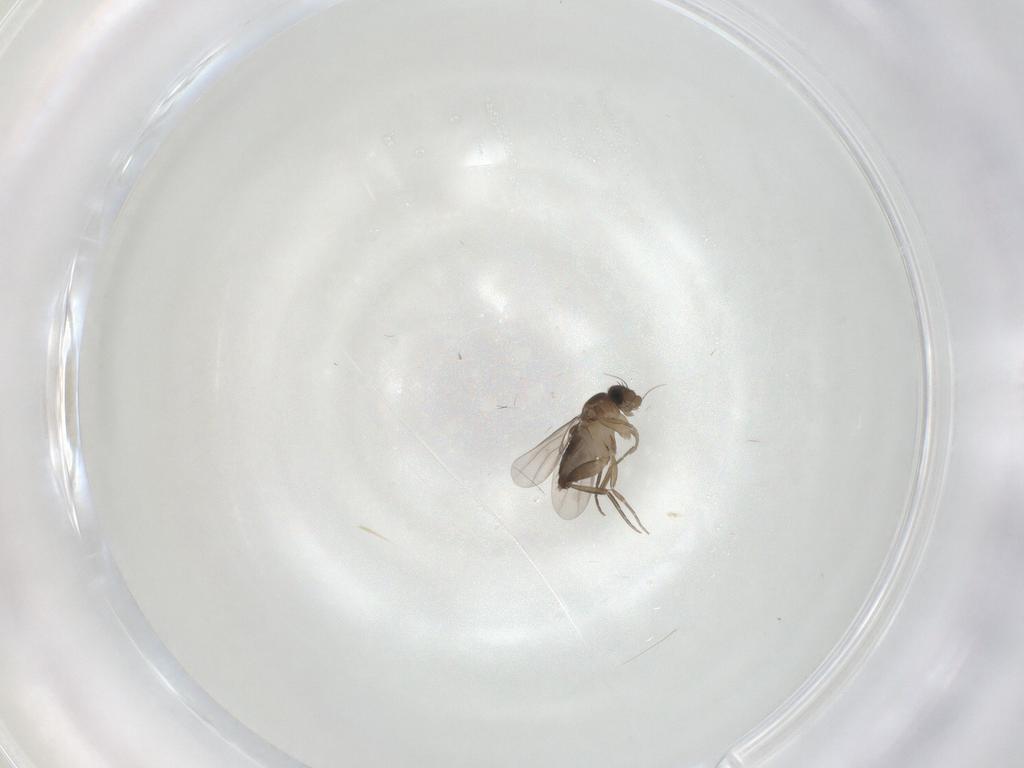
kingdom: Animalia
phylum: Arthropoda
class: Insecta
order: Diptera
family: Phoridae
